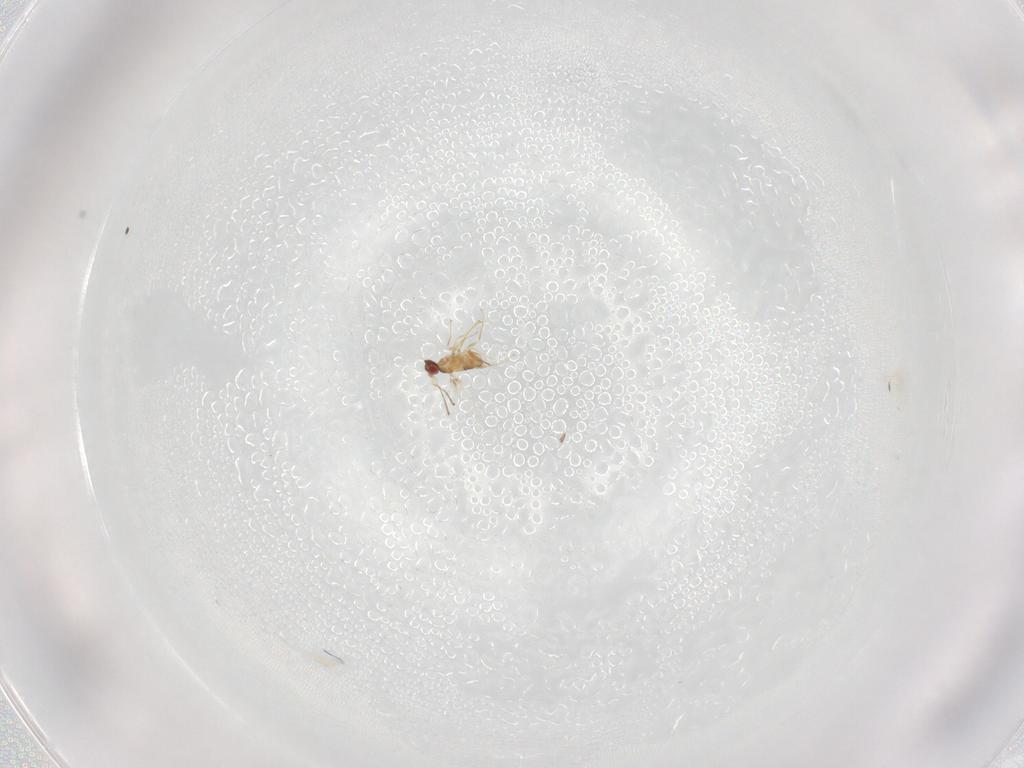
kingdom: Animalia
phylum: Arthropoda
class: Insecta
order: Hymenoptera
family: Mymaridae
